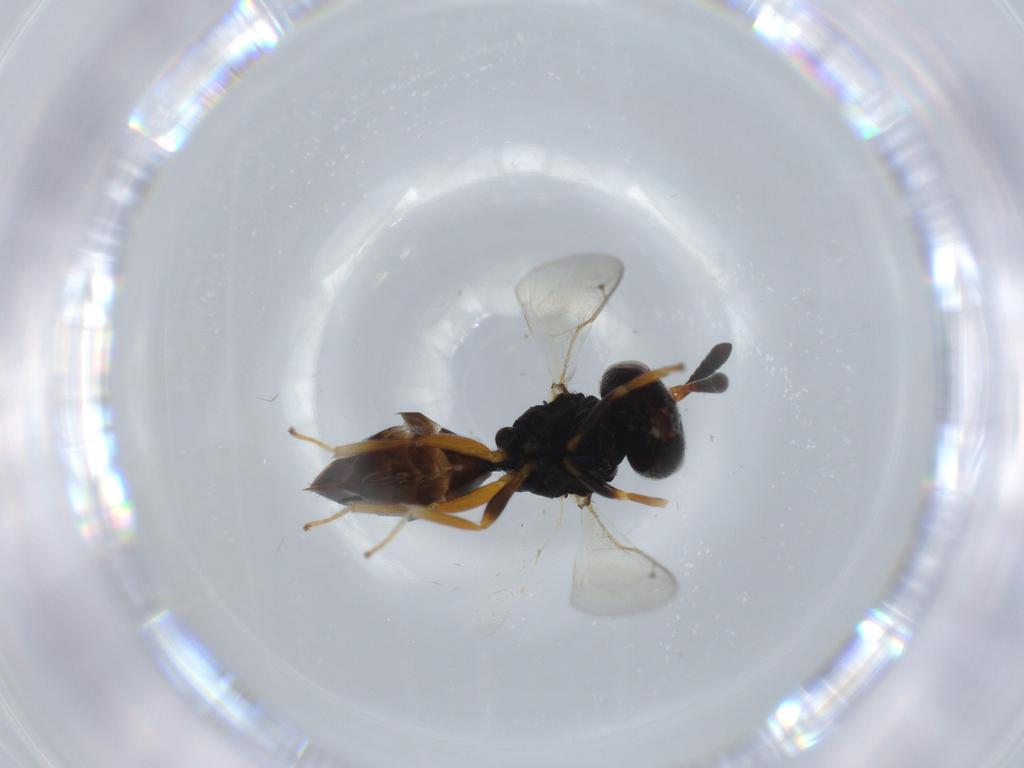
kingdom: Animalia
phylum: Arthropoda
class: Insecta
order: Hymenoptera
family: Agaonidae
